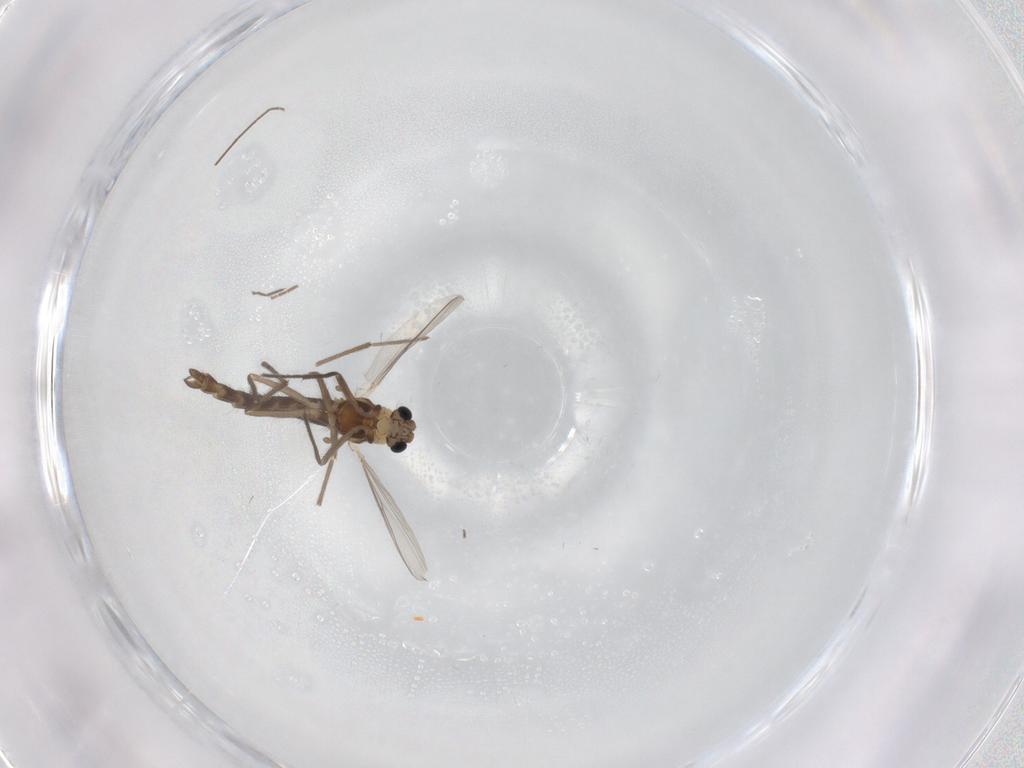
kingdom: Animalia
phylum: Arthropoda
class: Insecta
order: Diptera
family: Chironomidae
